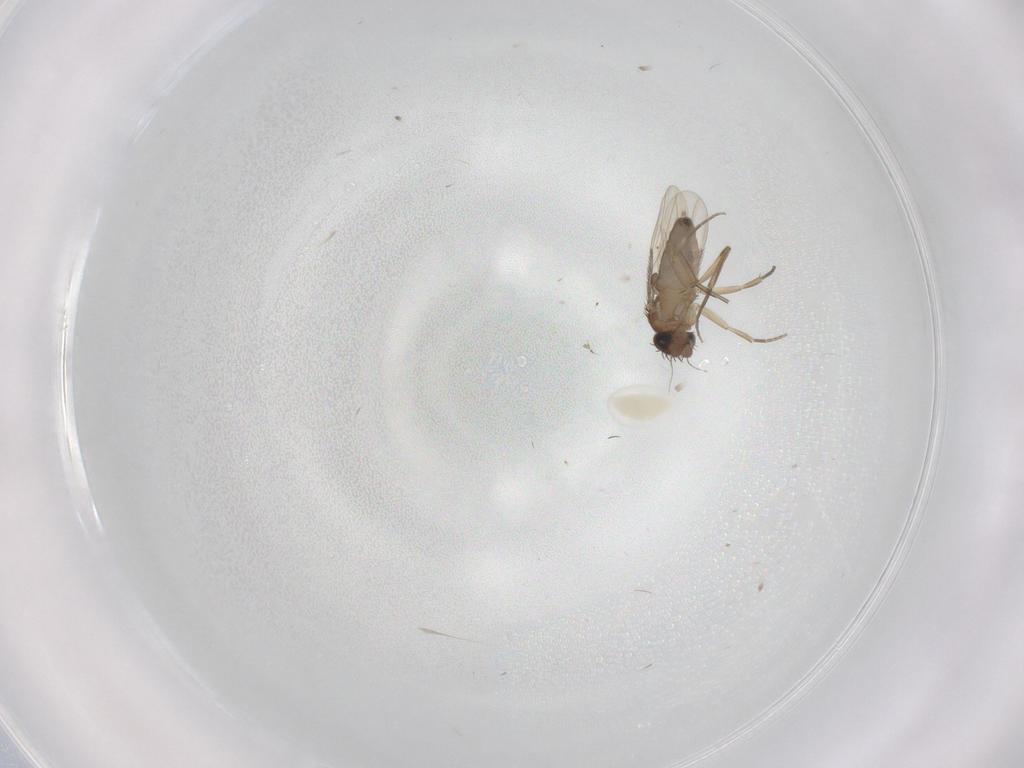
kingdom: Animalia
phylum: Arthropoda
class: Insecta
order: Diptera
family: Phoridae
